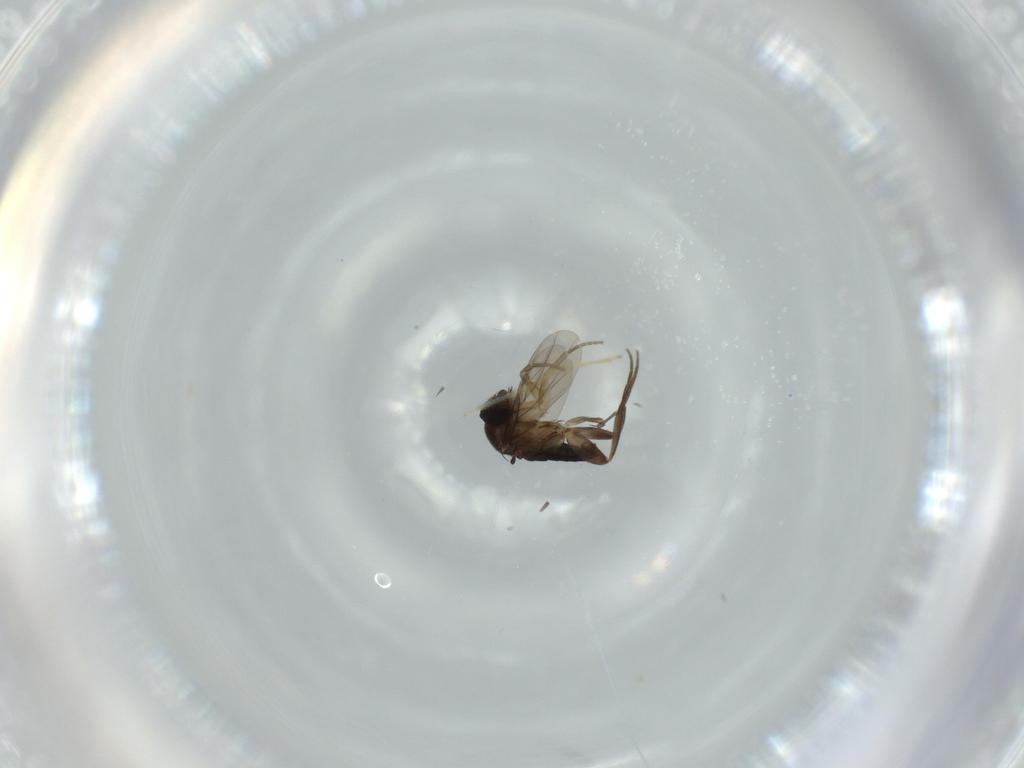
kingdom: Animalia
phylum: Arthropoda
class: Insecta
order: Diptera
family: Phoridae
